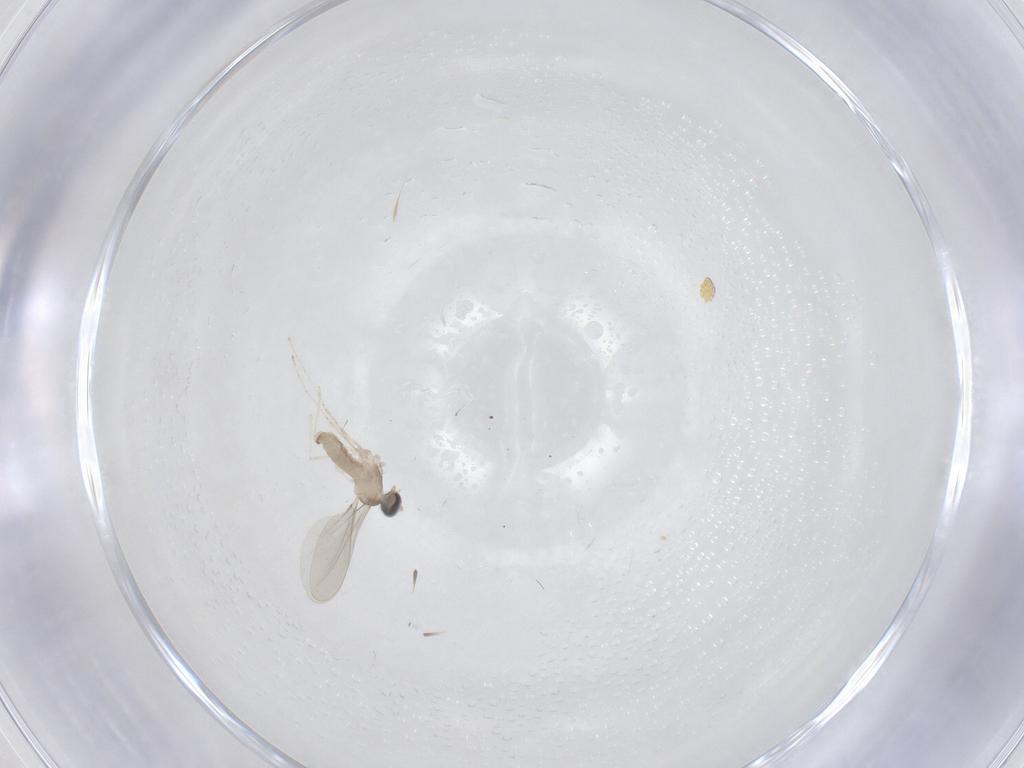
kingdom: Animalia
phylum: Arthropoda
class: Insecta
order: Diptera
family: Cecidomyiidae
